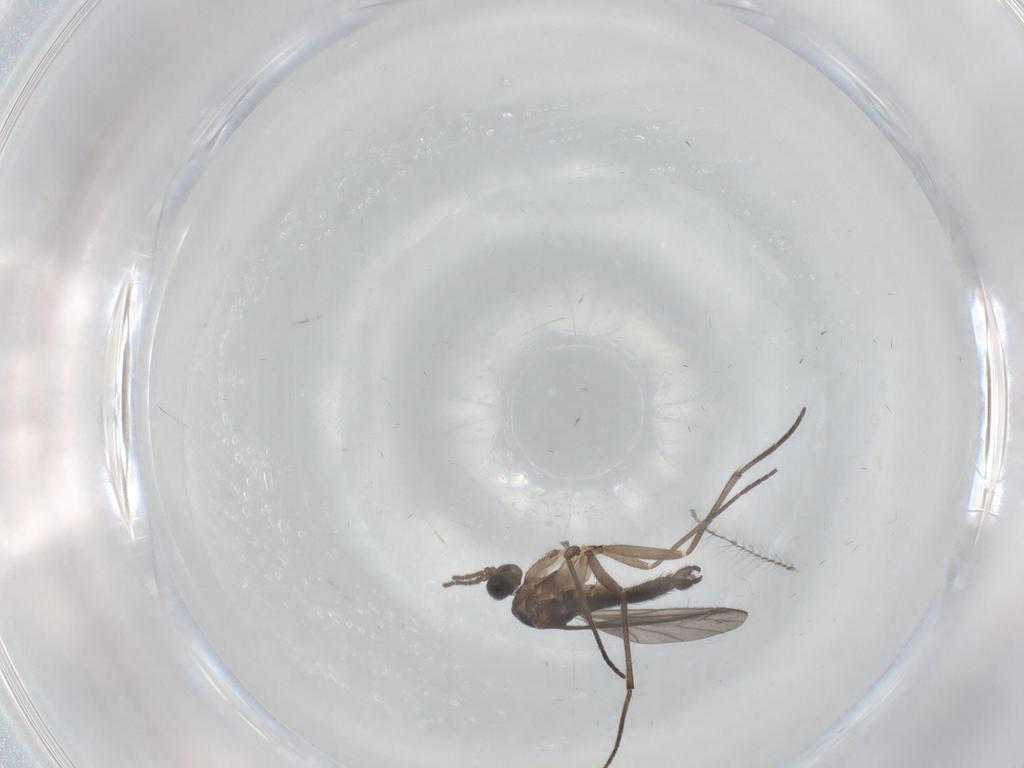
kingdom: Animalia
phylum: Arthropoda
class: Insecta
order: Diptera
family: Sciaridae
